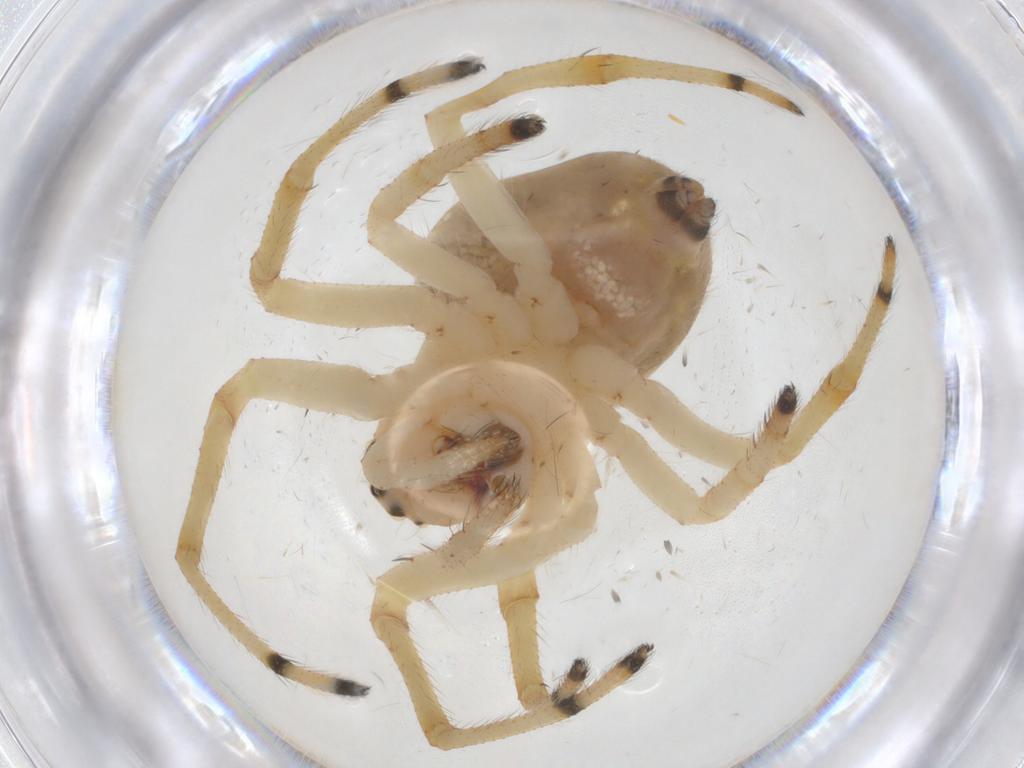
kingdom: Animalia
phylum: Arthropoda
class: Arachnida
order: Araneae
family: Araneidae
